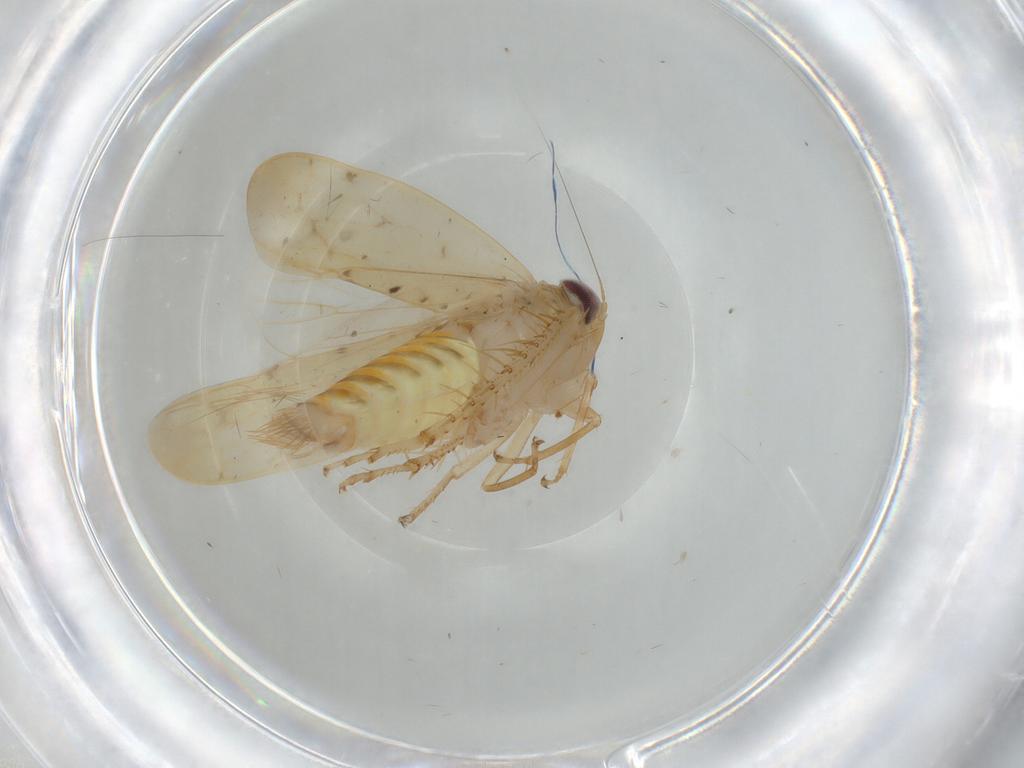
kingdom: Animalia
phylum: Arthropoda
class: Insecta
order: Hemiptera
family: Cicadellidae
